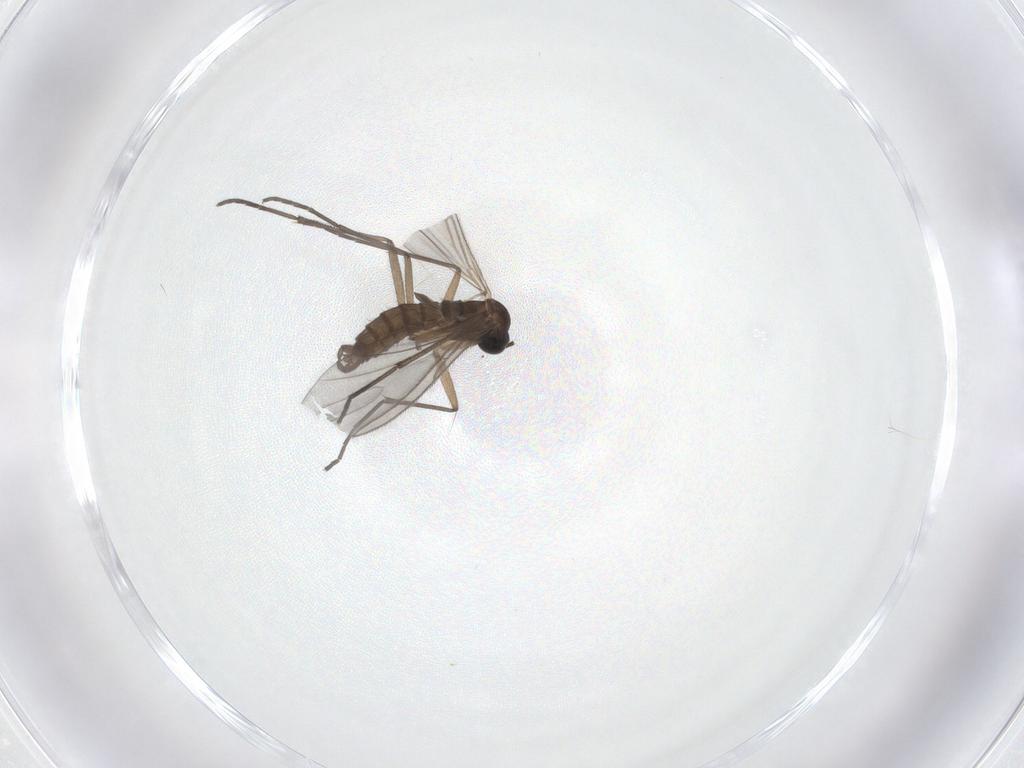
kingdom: Animalia
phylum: Arthropoda
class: Insecta
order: Diptera
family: Sciaridae
